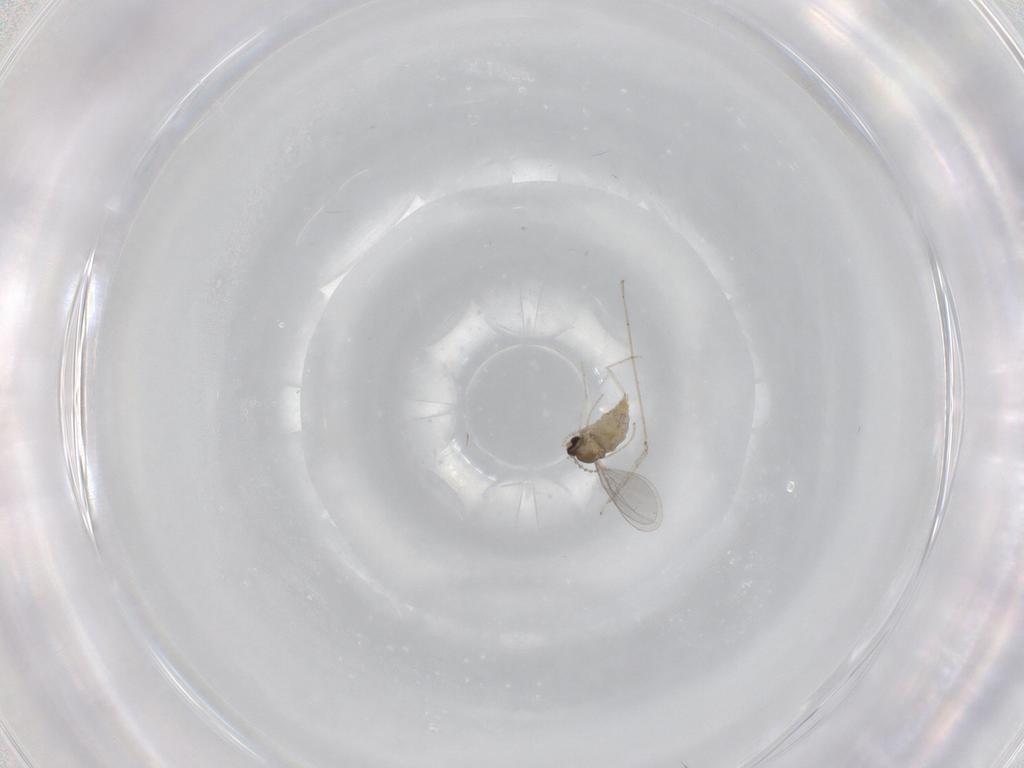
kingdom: Animalia
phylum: Arthropoda
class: Insecta
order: Diptera
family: Cecidomyiidae
